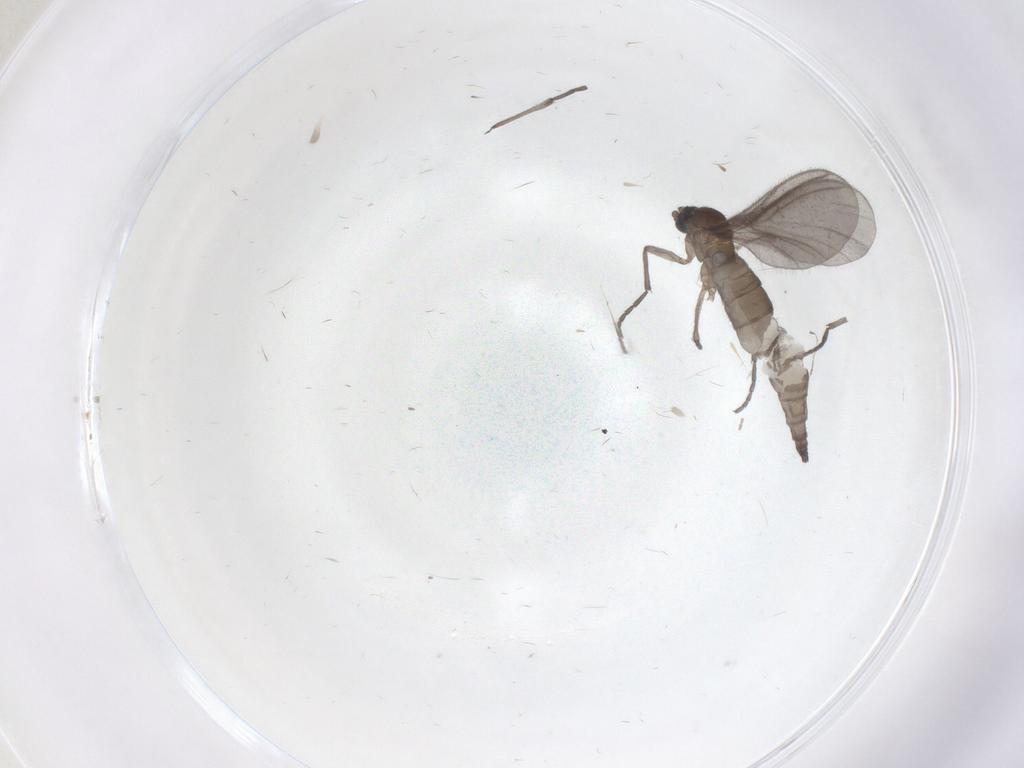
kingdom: Animalia
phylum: Arthropoda
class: Insecta
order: Diptera
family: Sciaridae
